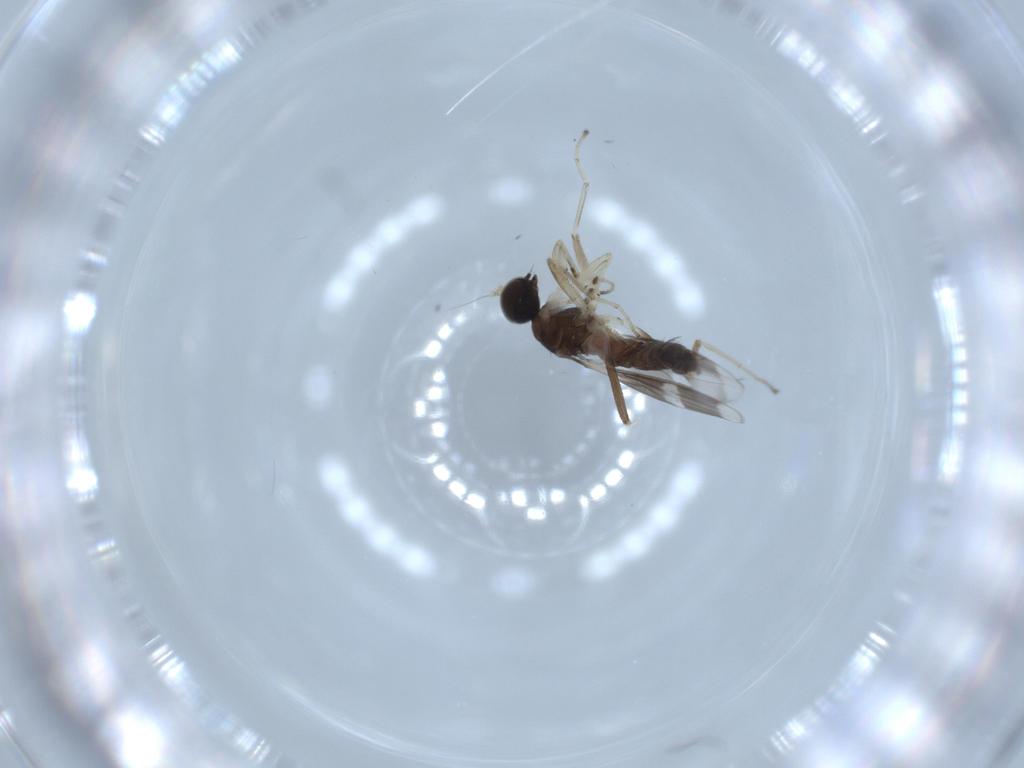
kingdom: Animalia
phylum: Arthropoda
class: Insecta
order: Diptera
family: Hybotidae
